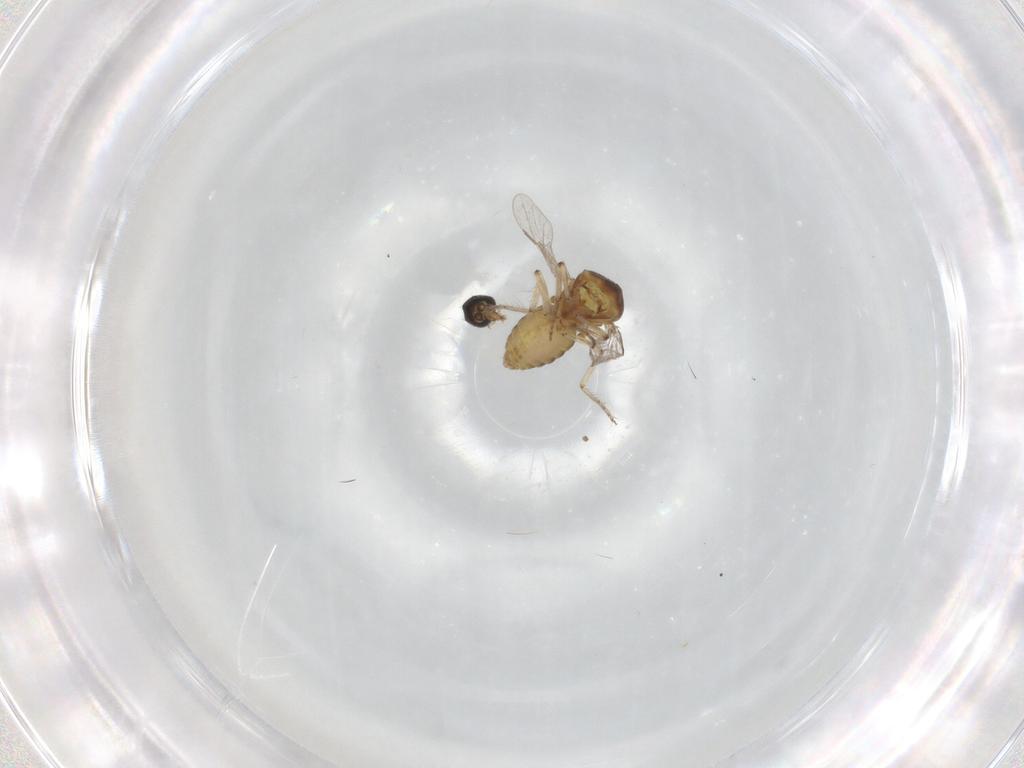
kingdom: Animalia
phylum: Arthropoda
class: Insecta
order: Diptera
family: Ceratopogonidae
